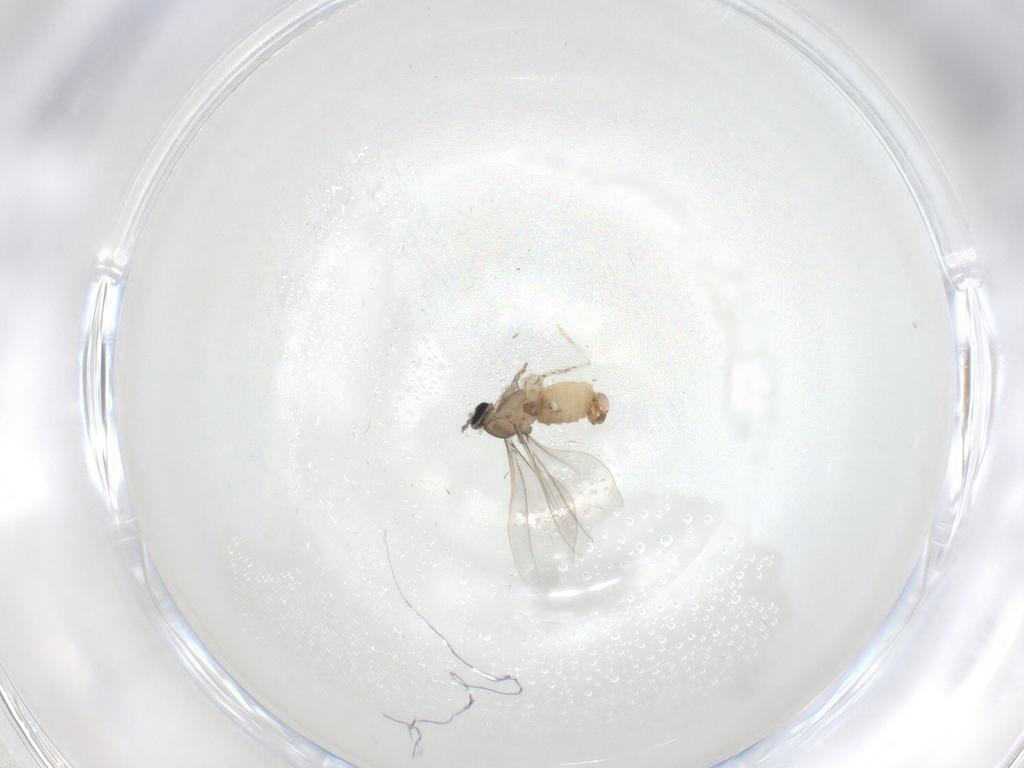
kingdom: Animalia
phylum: Arthropoda
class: Insecta
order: Diptera
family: Cecidomyiidae
